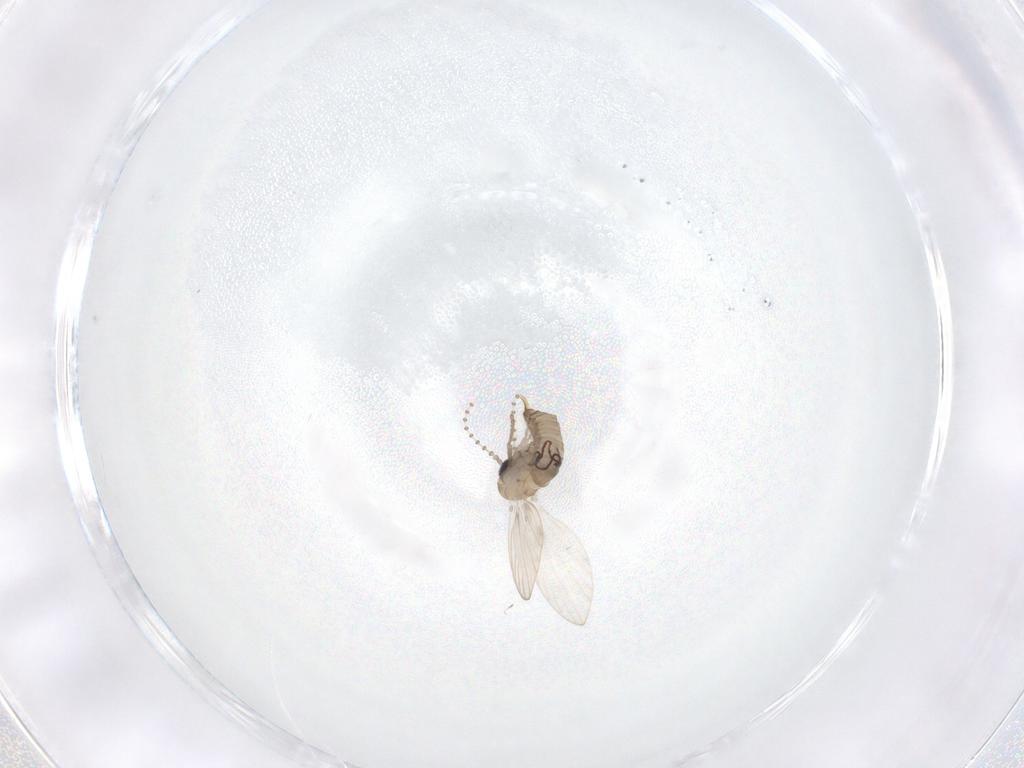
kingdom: Animalia
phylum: Arthropoda
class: Insecta
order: Diptera
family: Psychodidae
